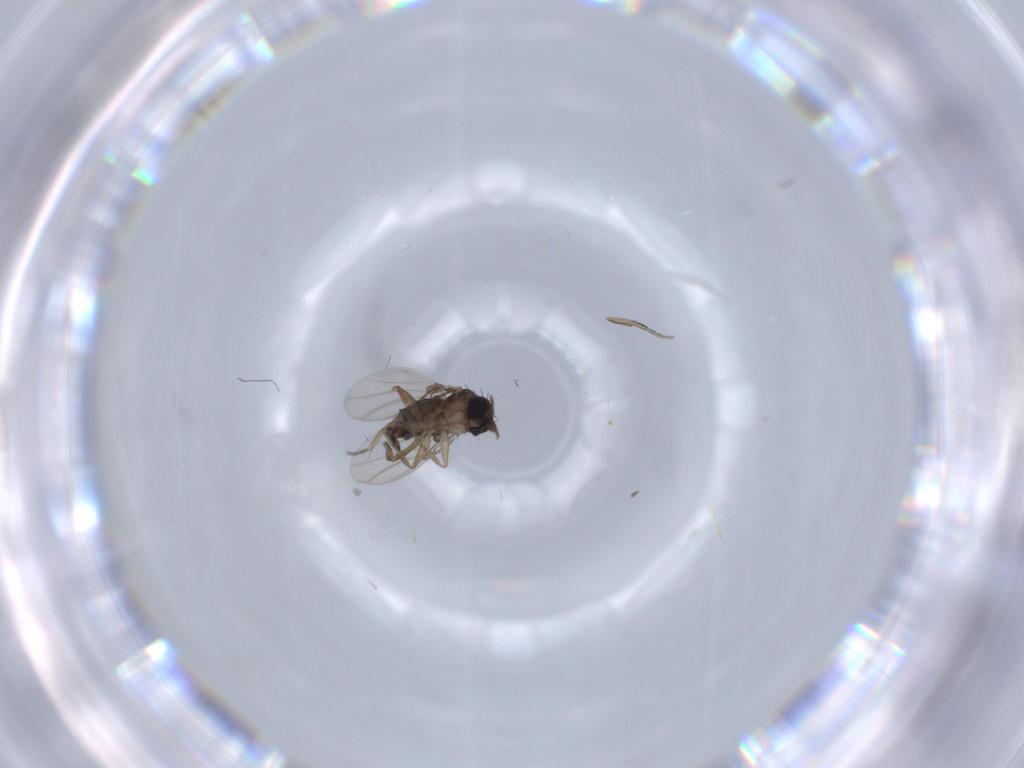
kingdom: Animalia
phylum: Arthropoda
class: Insecta
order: Diptera
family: Phoridae
